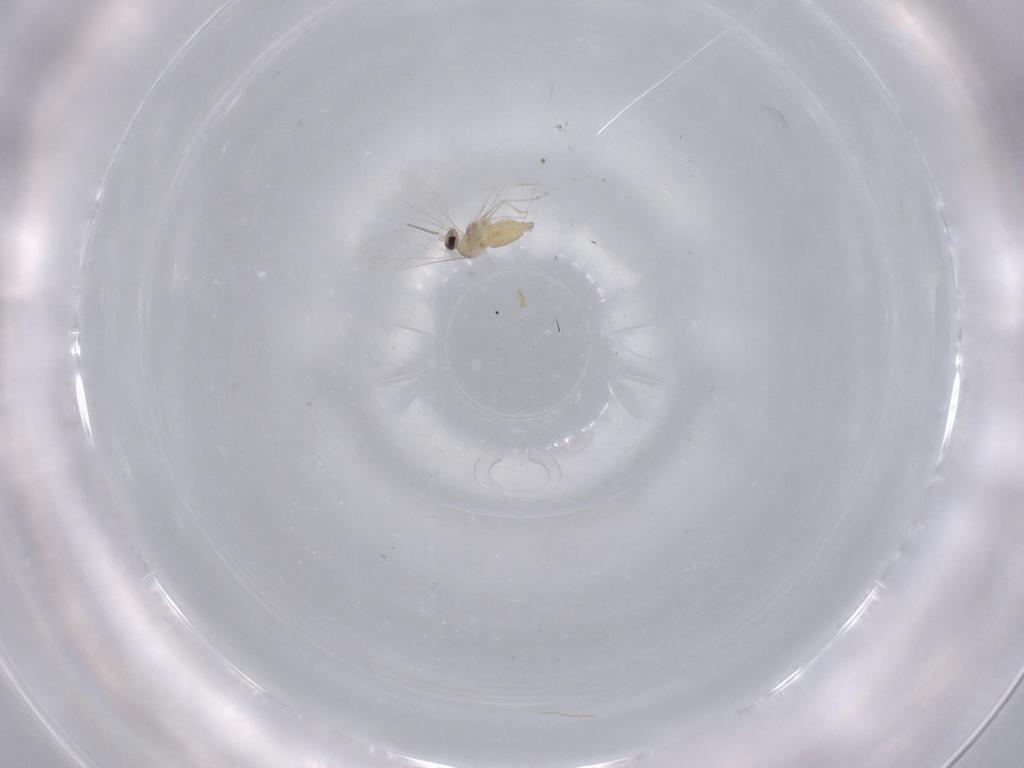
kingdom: Animalia
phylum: Arthropoda
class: Insecta
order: Diptera
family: Cecidomyiidae
